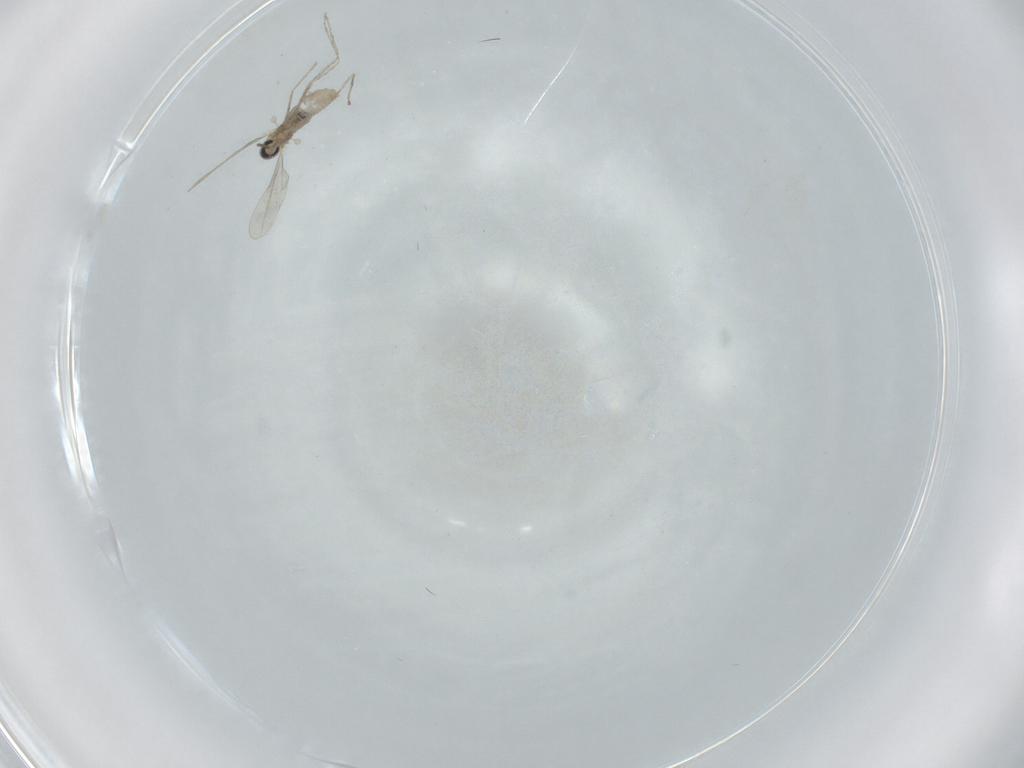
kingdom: Animalia
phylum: Arthropoda
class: Insecta
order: Diptera
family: Cecidomyiidae
